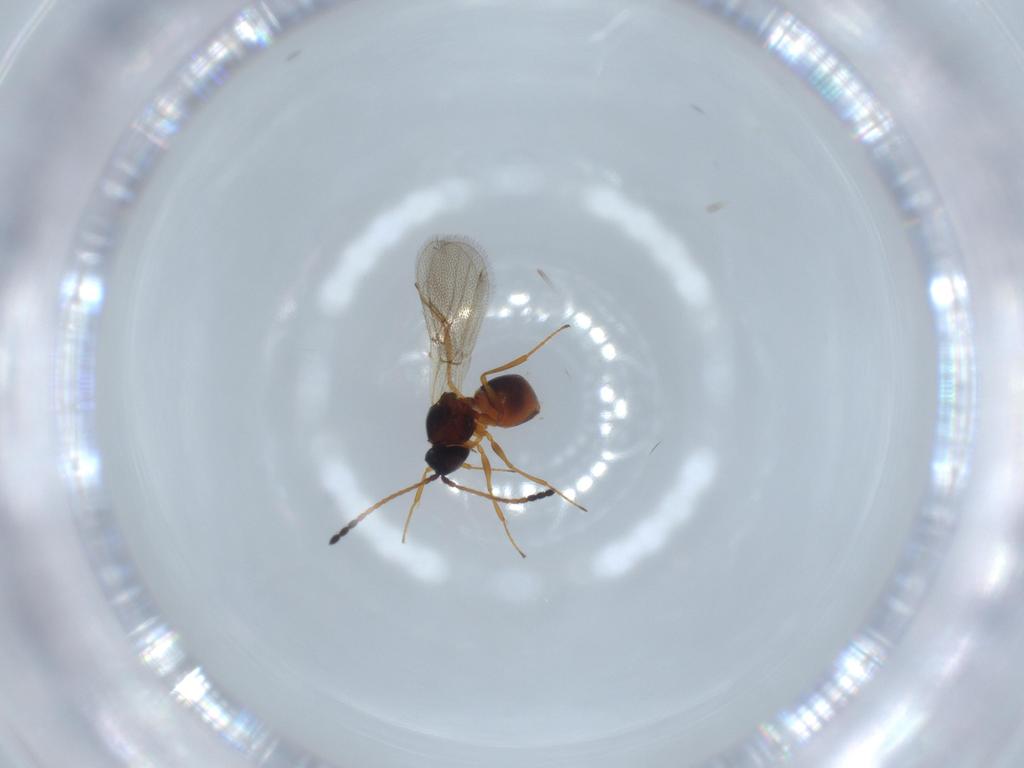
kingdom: Animalia
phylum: Arthropoda
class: Insecta
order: Hymenoptera
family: Figitidae
